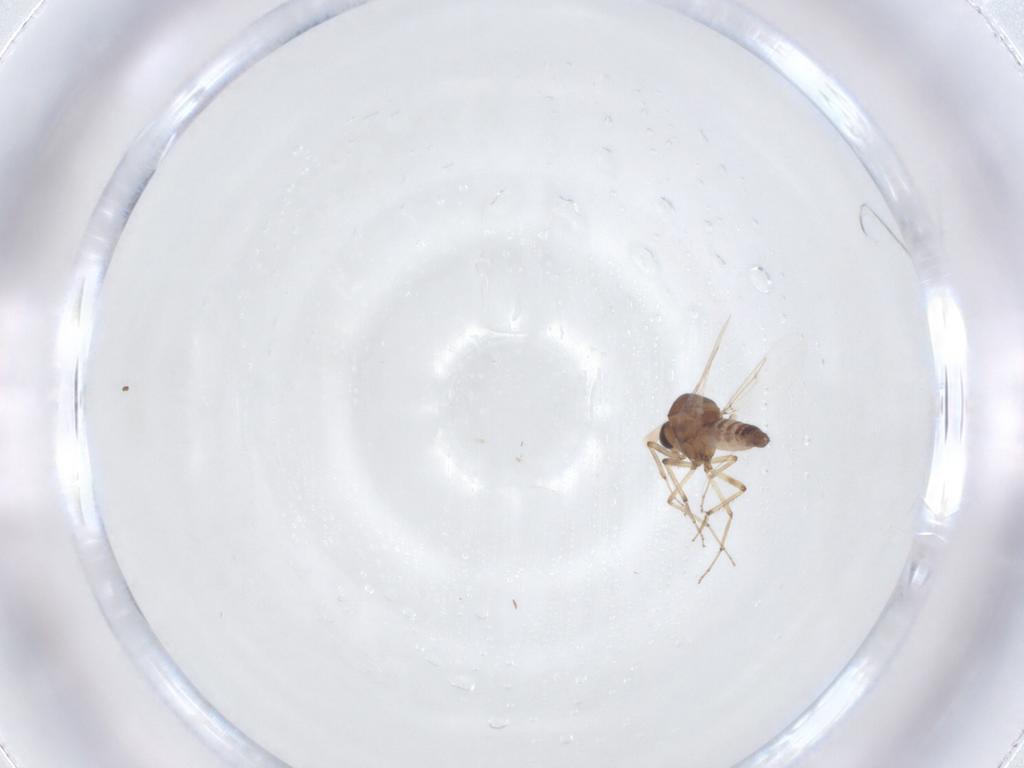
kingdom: Animalia
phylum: Arthropoda
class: Insecta
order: Diptera
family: Ceratopogonidae
